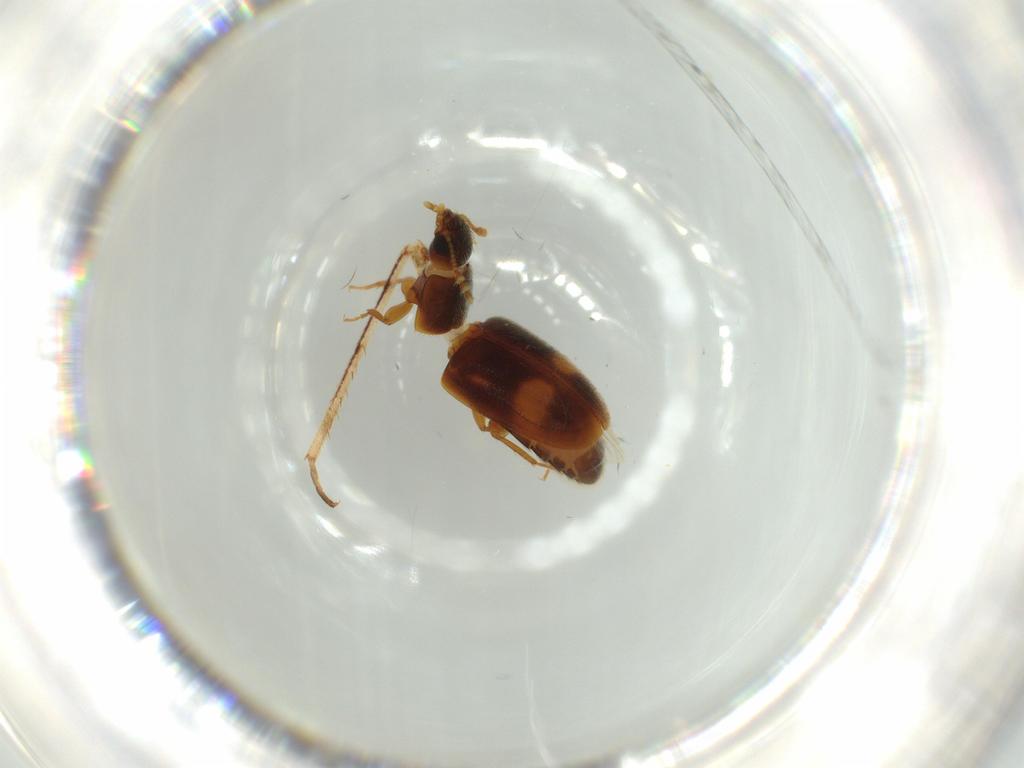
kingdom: Animalia
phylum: Arthropoda
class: Insecta
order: Coleoptera
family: Mycetophagidae
